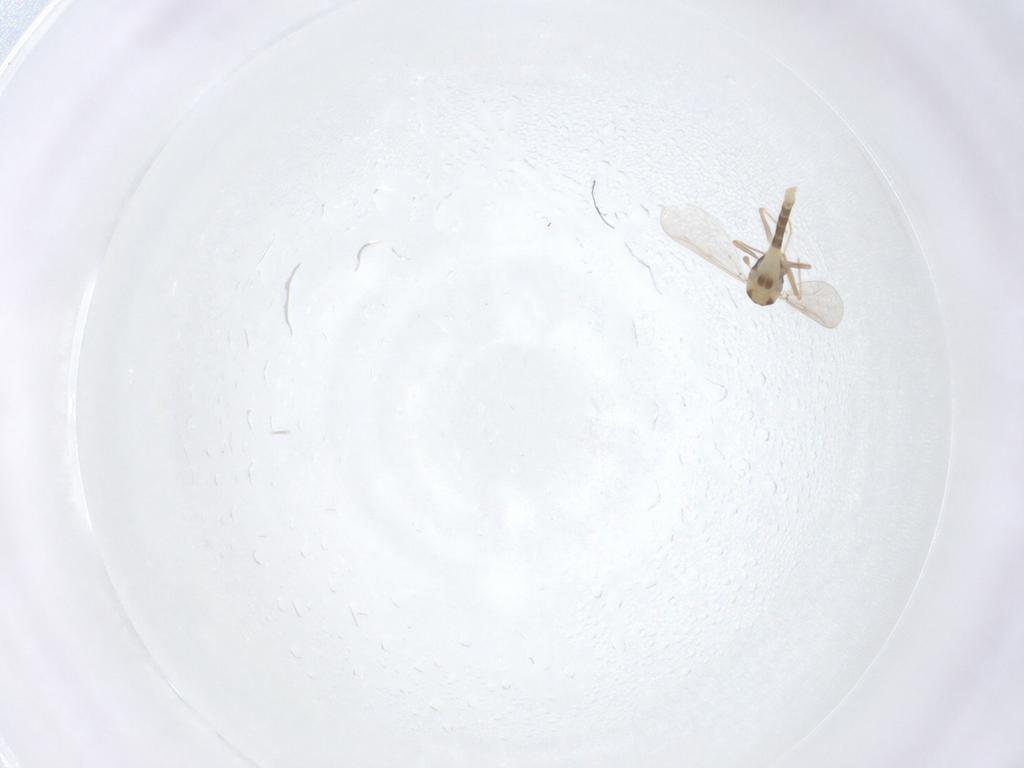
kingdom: Animalia
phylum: Arthropoda
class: Insecta
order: Diptera
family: Chironomidae
